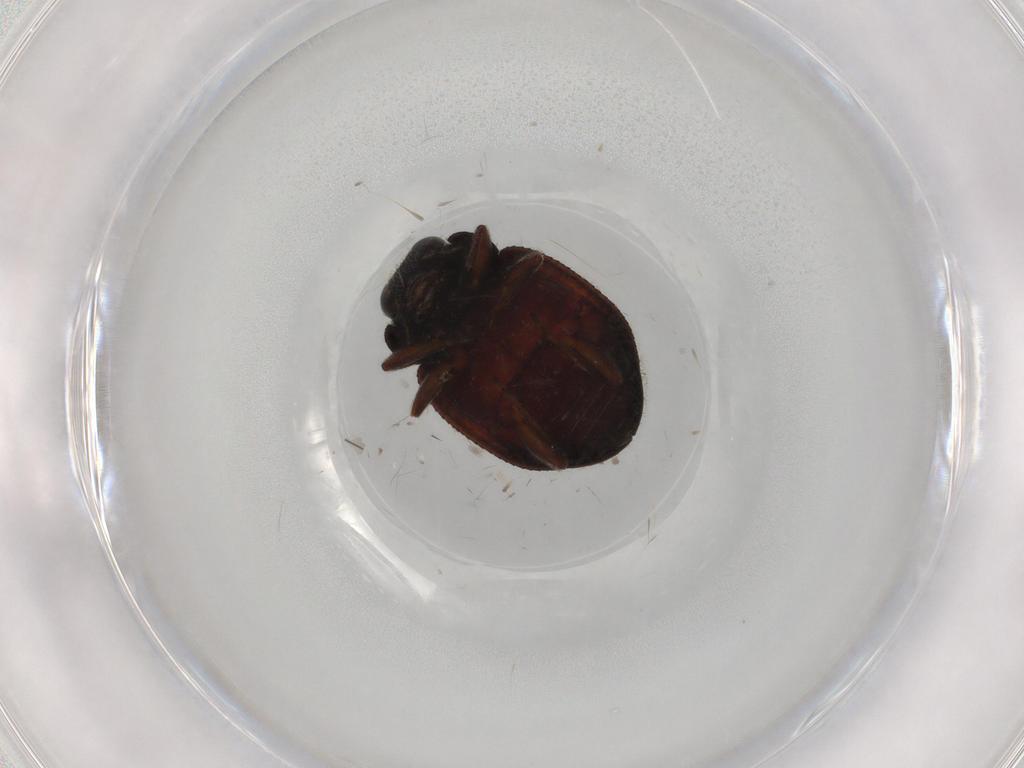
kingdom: Animalia
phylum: Arthropoda
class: Insecta
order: Coleoptera
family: Coccinellidae
